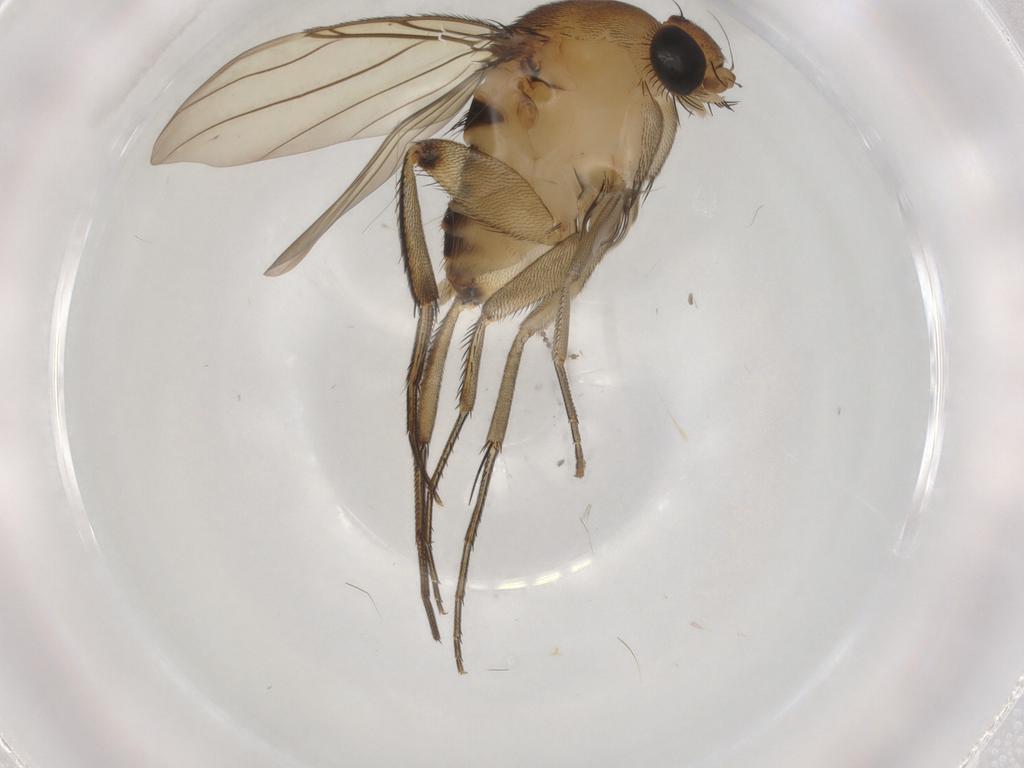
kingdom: Animalia
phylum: Arthropoda
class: Insecta
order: Diptera
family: Phoridae
